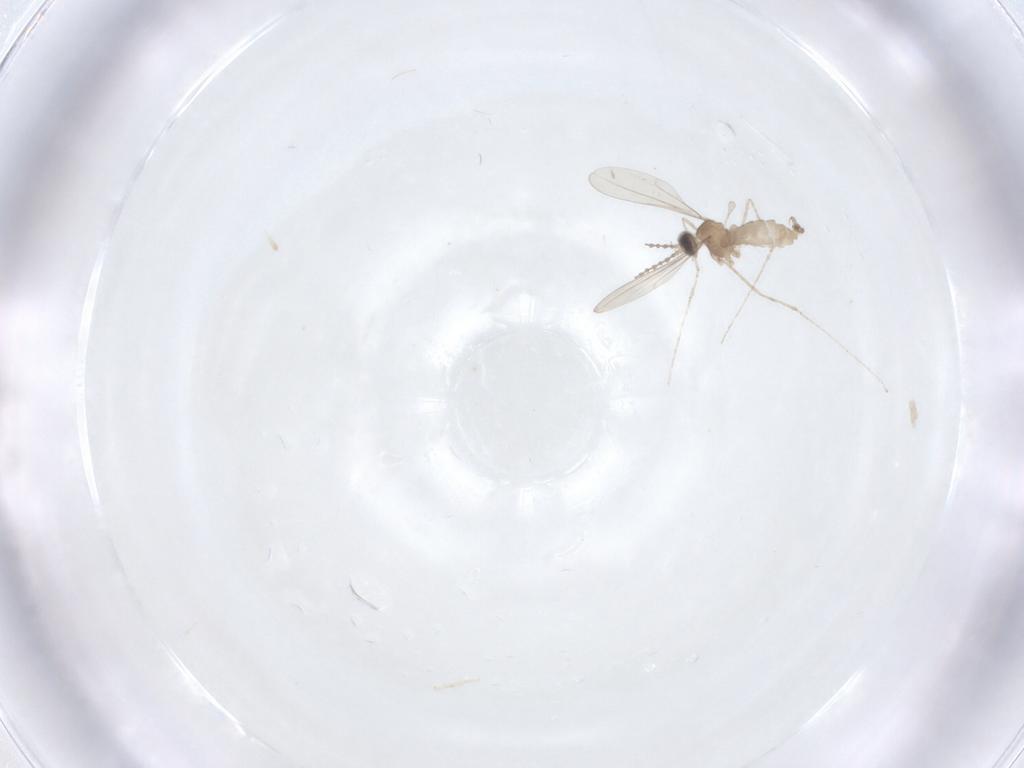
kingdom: Animalia
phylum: Arthropoda
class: Insecta
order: Diptera
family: Cecidomyiidae
